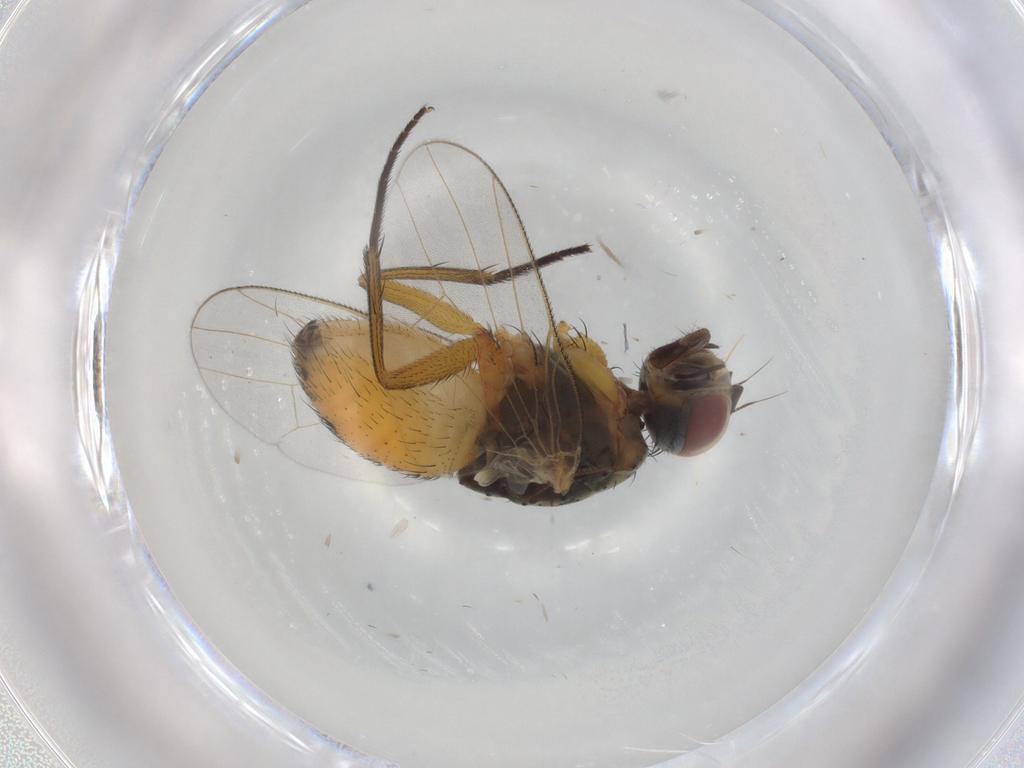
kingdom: Animalia
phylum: Arthropoda
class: Insecta
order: Diptera
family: Muscidae
